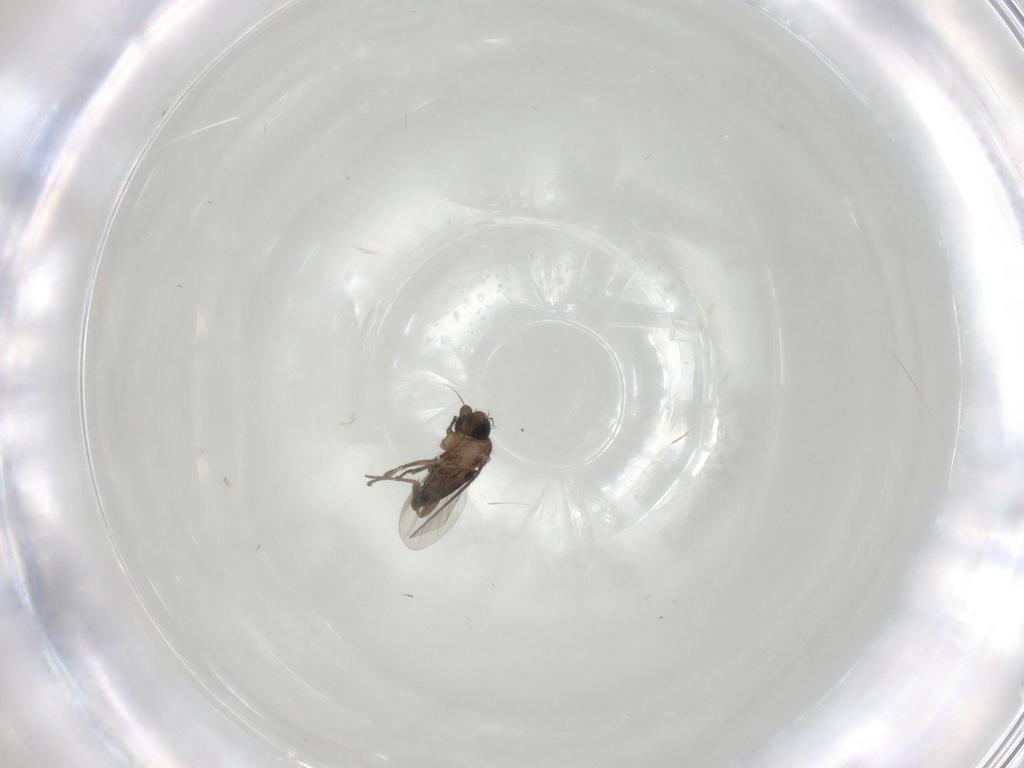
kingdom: Animalia
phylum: Arthropoda
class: Insecta
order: Diptera
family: Phoridae
